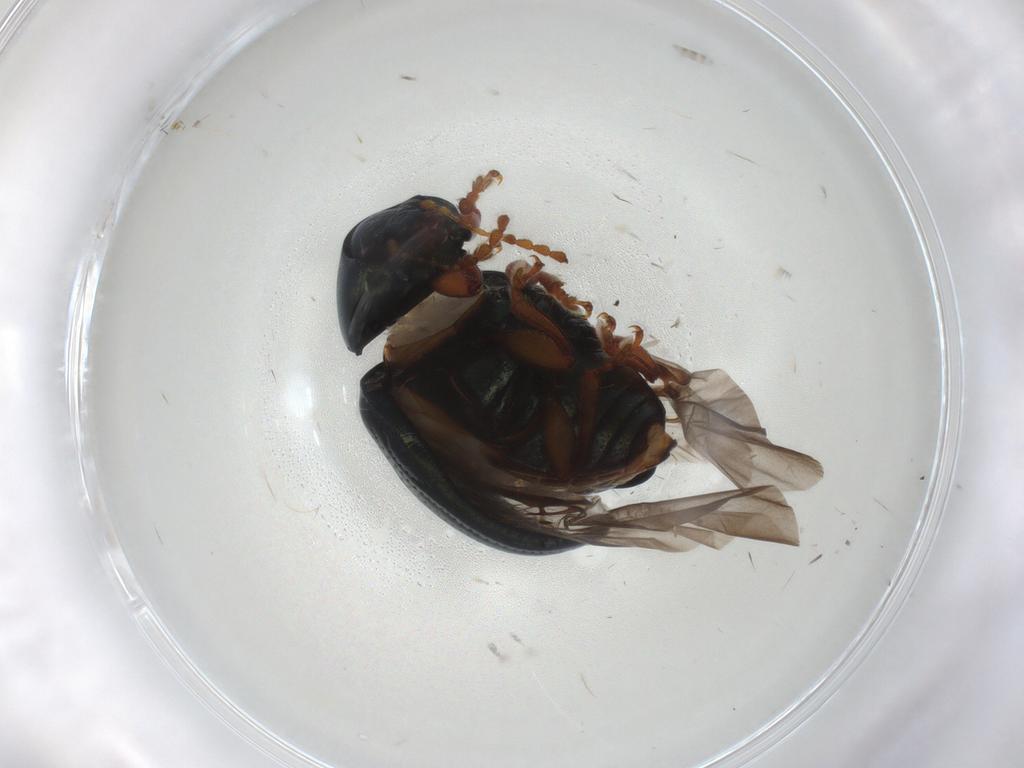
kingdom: Animalia
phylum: Arthropoda
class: Insecta
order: Coleoptera
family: Chrysomelidae
